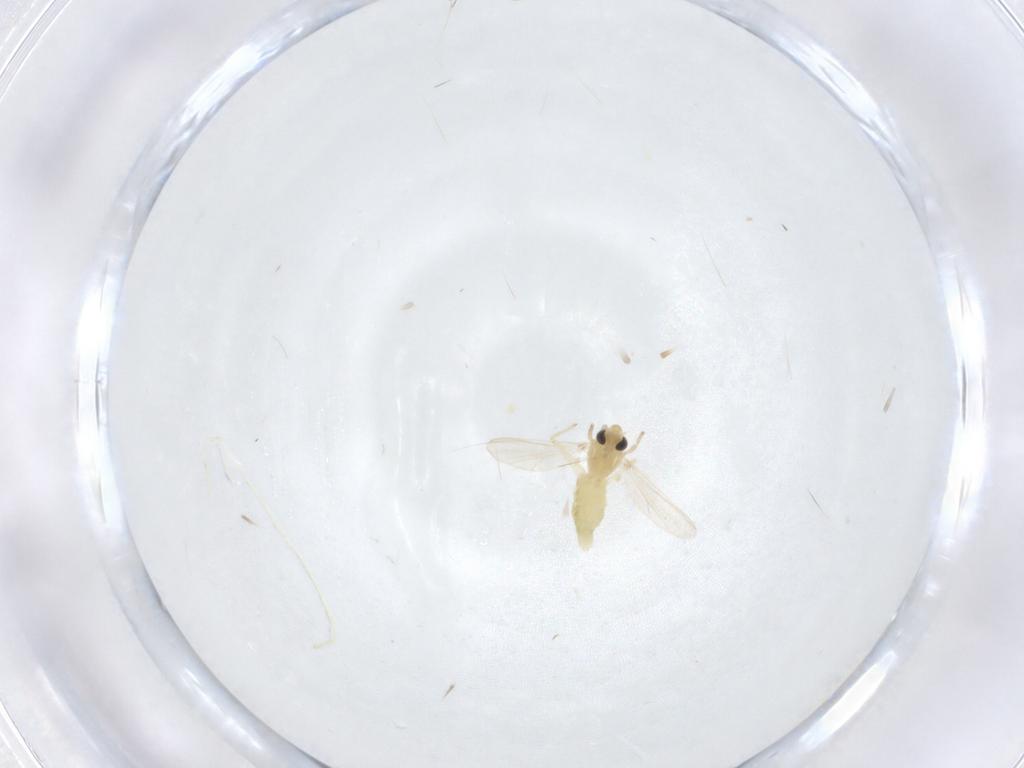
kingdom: Animalia
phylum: Arthropoda
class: Insecta
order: Diptera
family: Chironomidae
